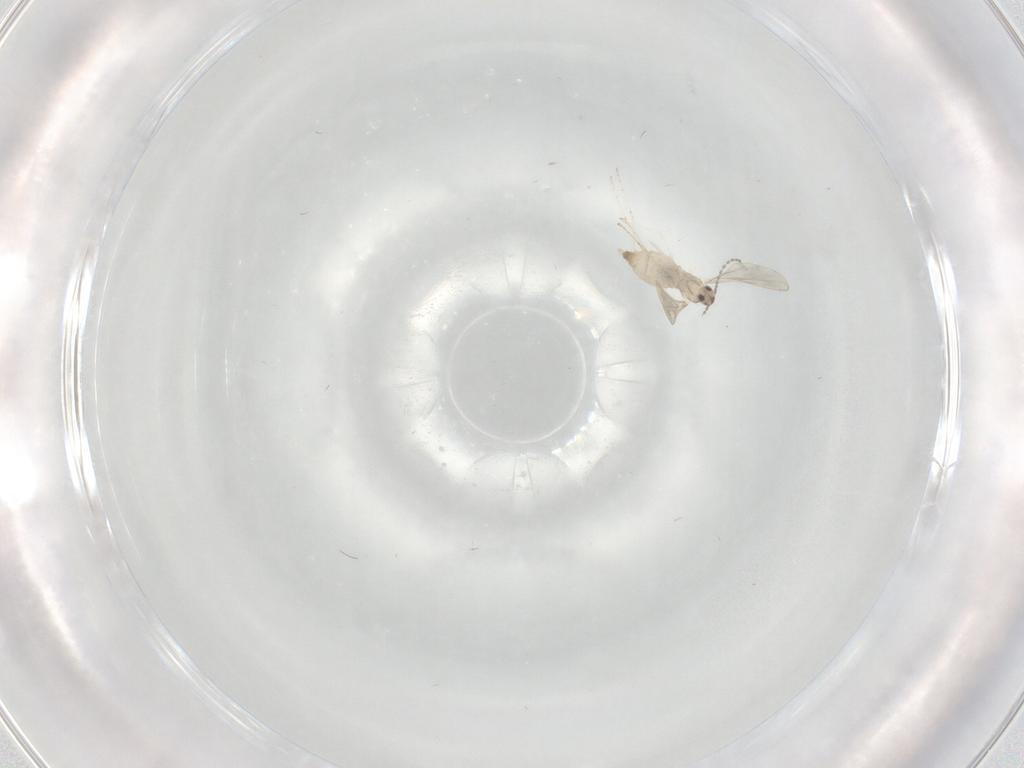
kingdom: Animalia
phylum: Arthropoda
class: Insecta
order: Diptera
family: Cecidomyiidae
